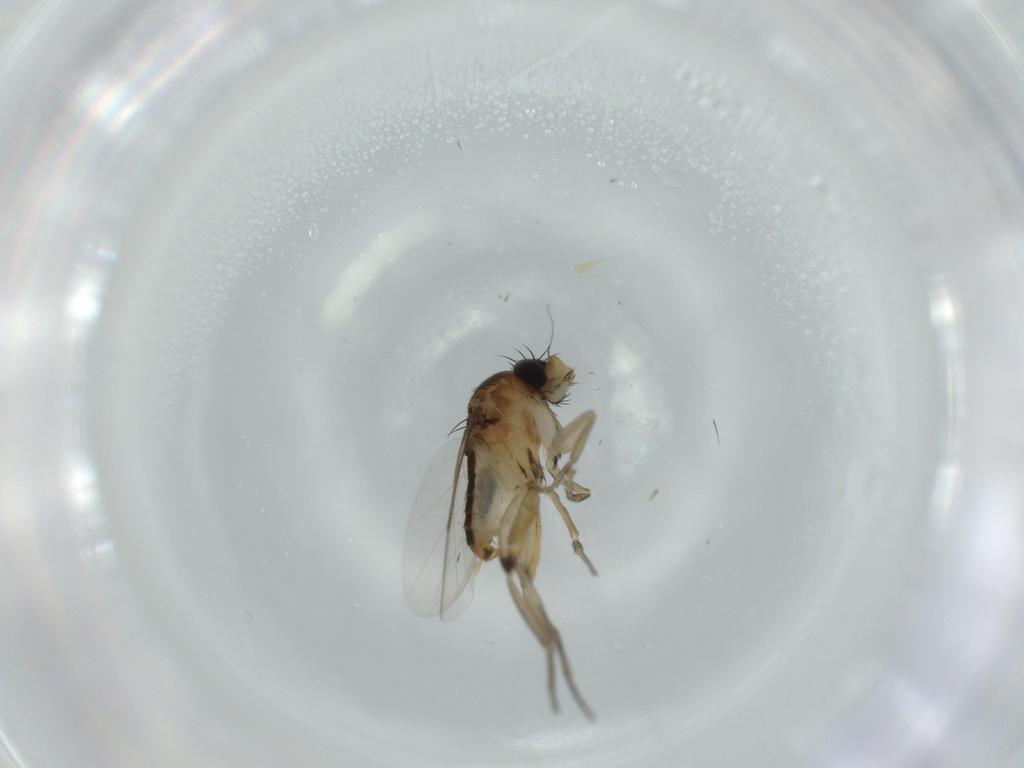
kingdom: Animalia
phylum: Arthropoda
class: Insecta
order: Diptera
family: Phoridae
